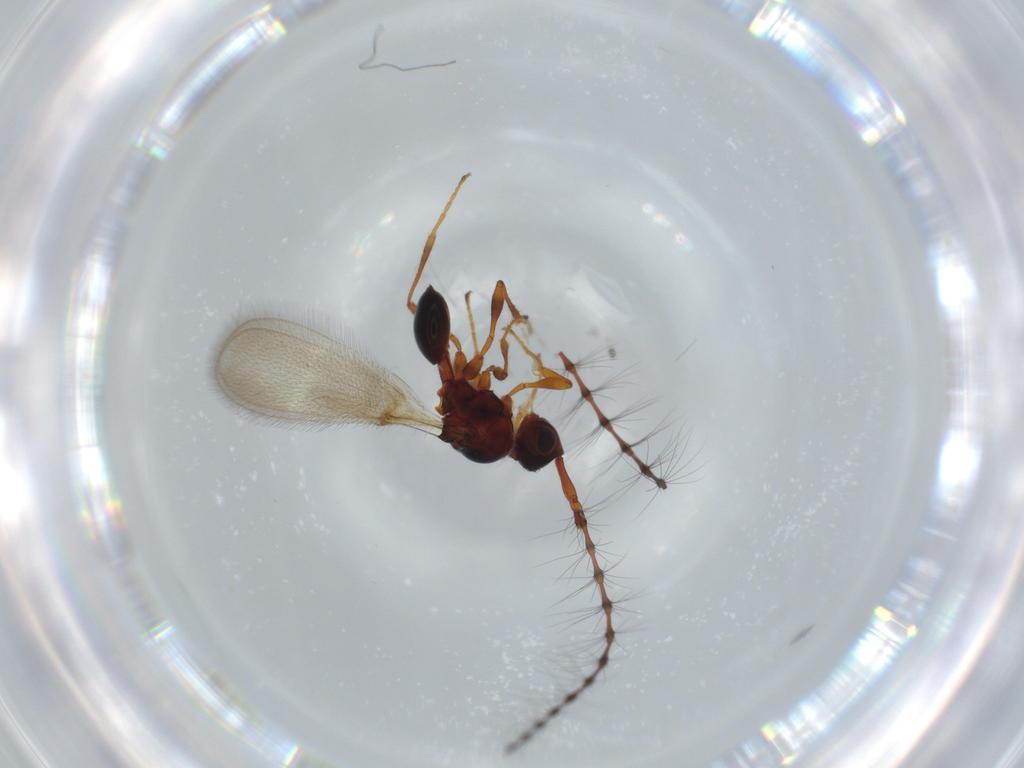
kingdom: Animalia
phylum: Arthropoda
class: Insecta
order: Hymenoptera
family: Diapriidae
